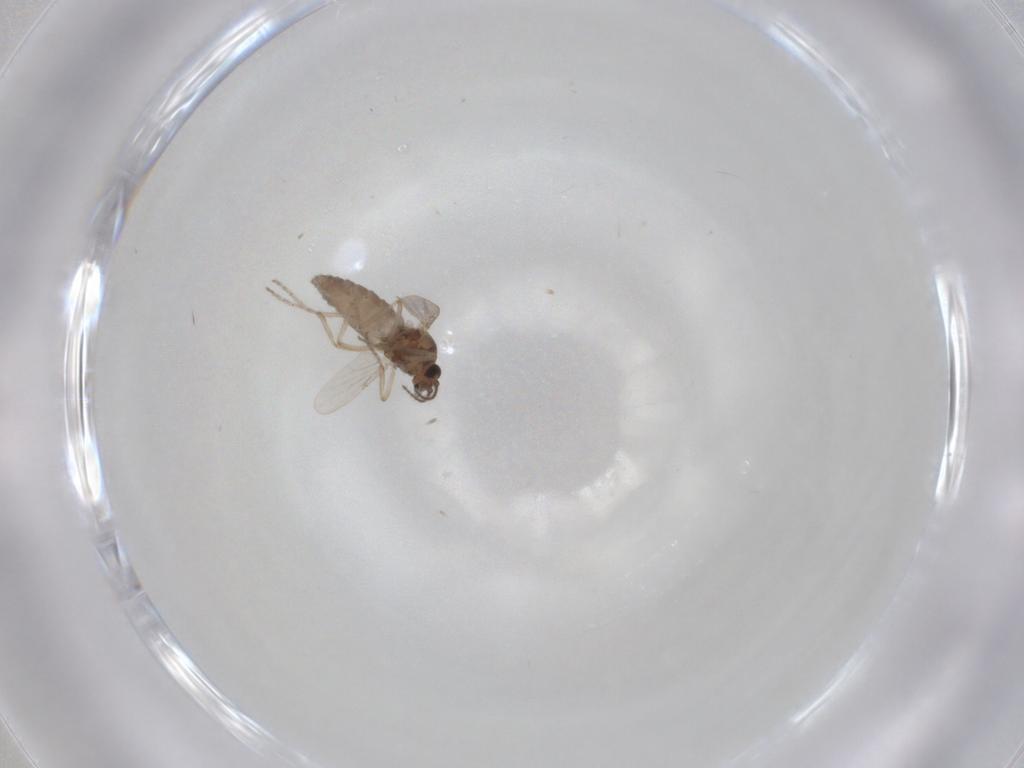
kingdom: Animalia
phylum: Arthropoda
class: Insecta
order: Diptera
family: Ceratopogonidae
